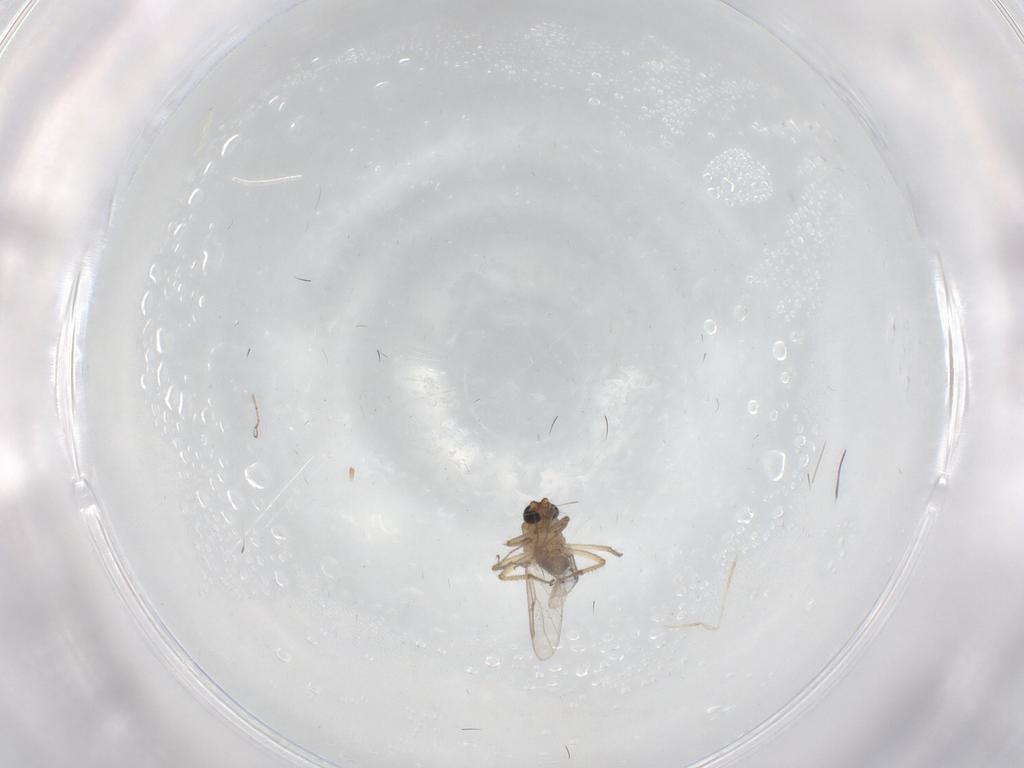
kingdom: Animalia
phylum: Arthropoda
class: Insecta
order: Diptera
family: Ceratopogonidae
